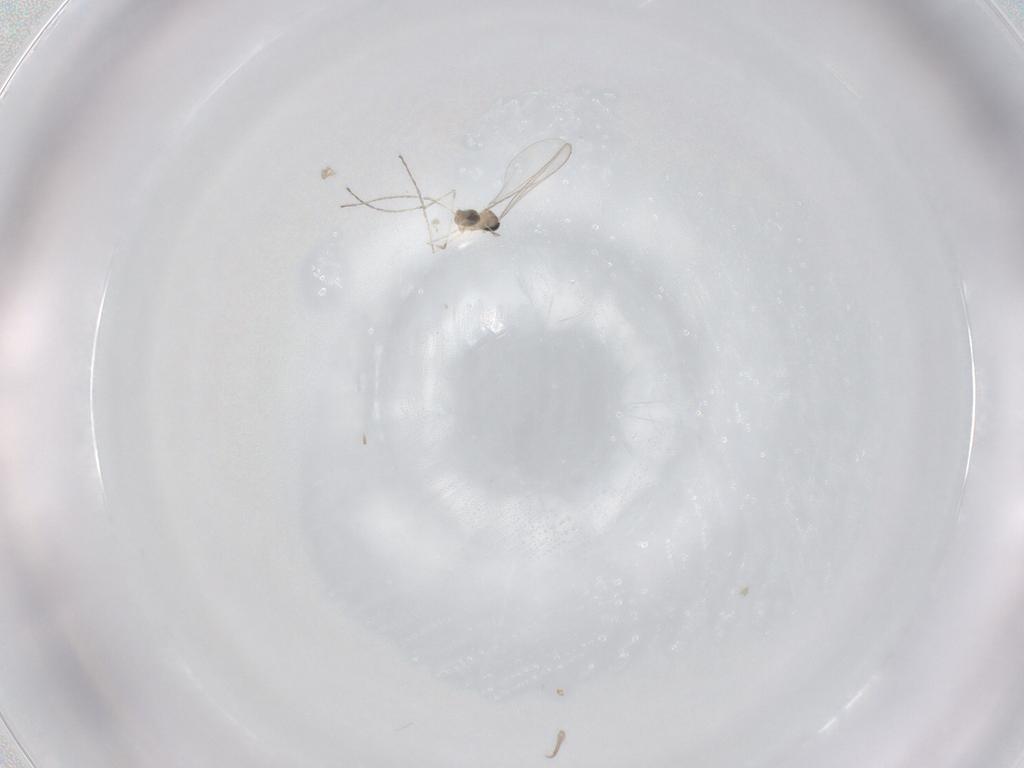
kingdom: Animalia
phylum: Arthropoda
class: Insecta
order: Diptera
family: Cecidomyiidae
